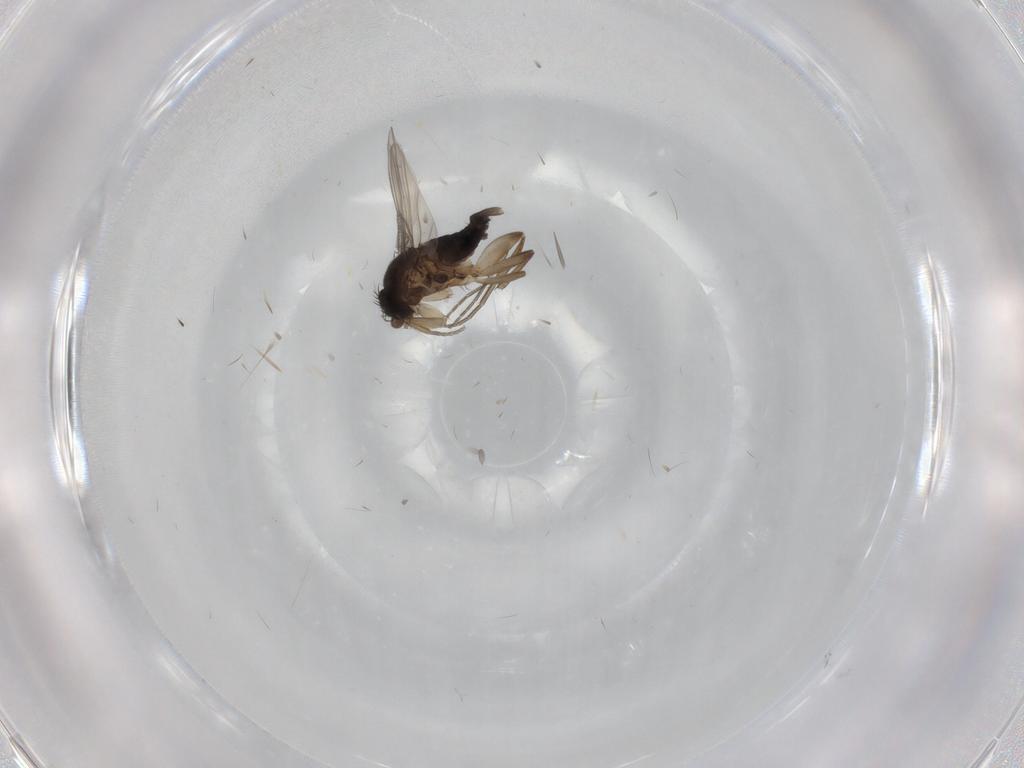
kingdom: Animalia
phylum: Arthropoda
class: Insecta
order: Diptera
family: Phoridae
